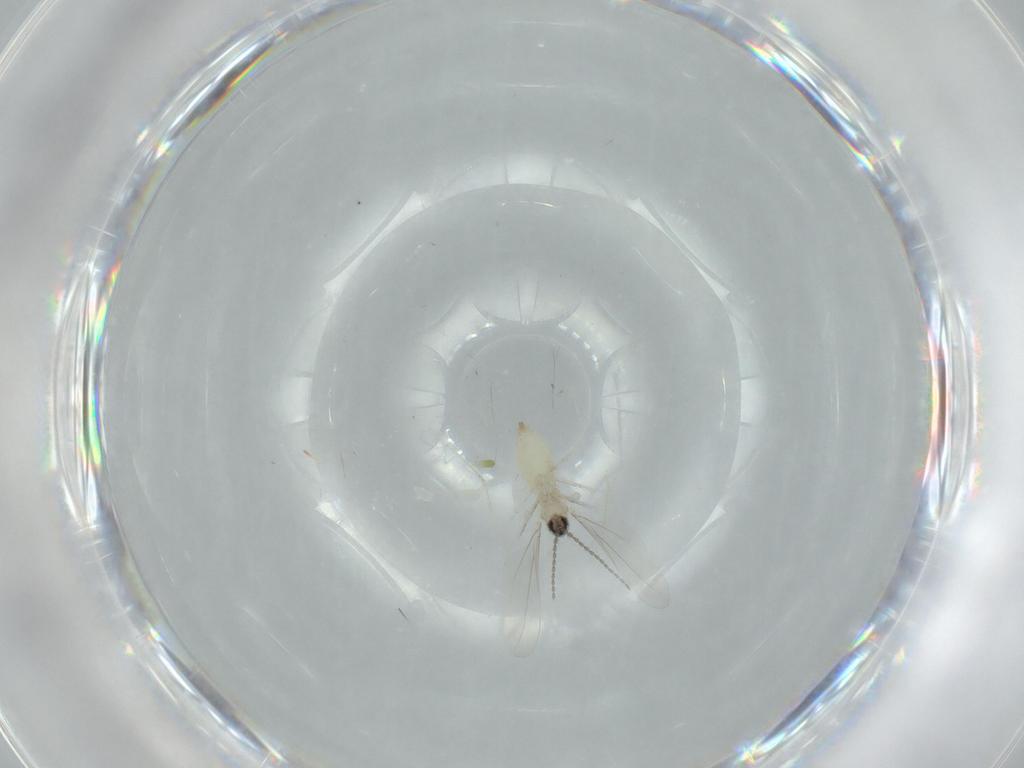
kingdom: Animalia
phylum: Arthropoda
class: Insecta
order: Diptera
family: Cecidomyiidae
